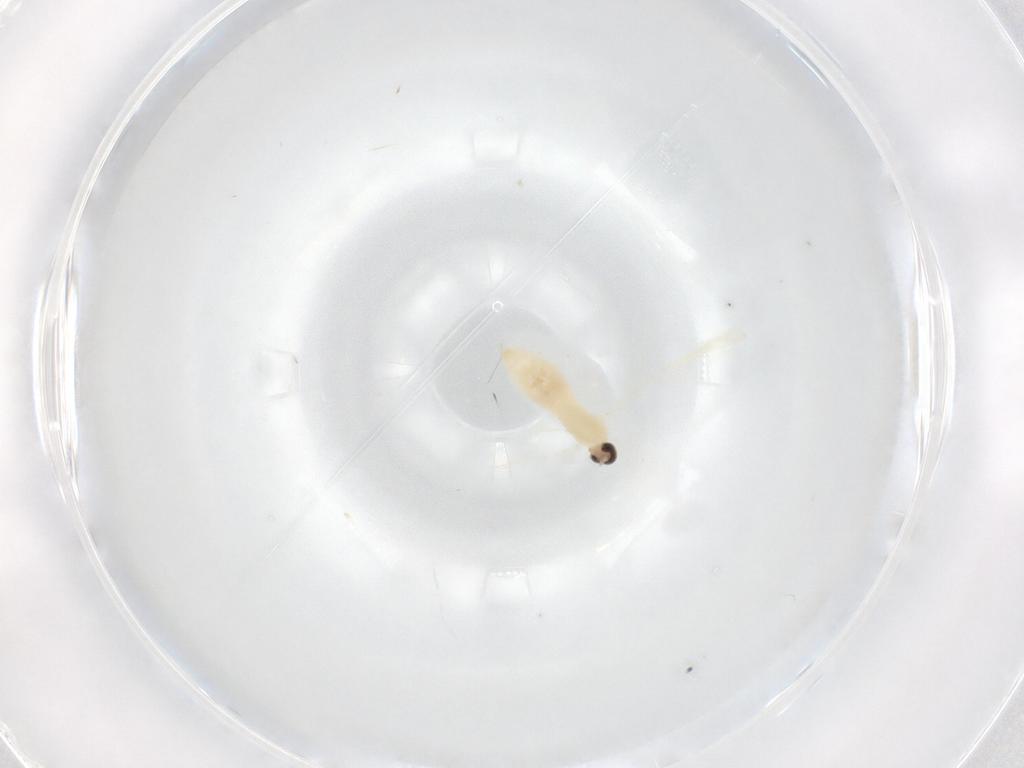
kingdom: Animalia
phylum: Arthropoda
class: Insecta
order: Diptera
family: Cecidomyiidae
